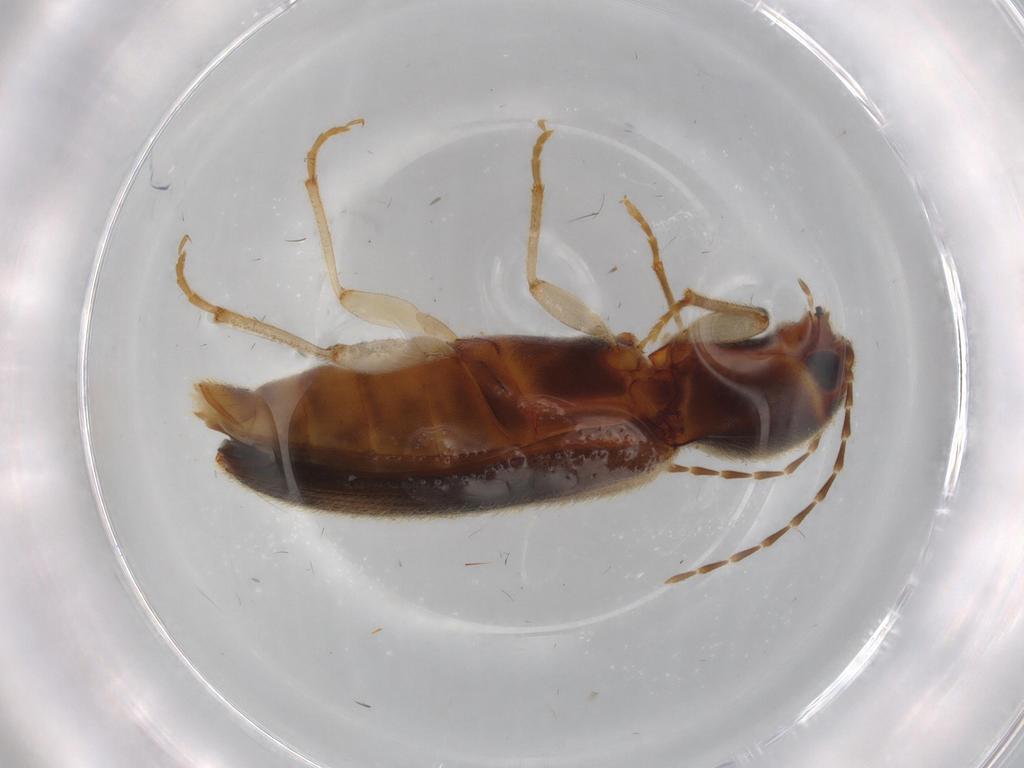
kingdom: Animalia
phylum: Arthropoda
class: Insecta
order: Coleoptera
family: Elateridae
